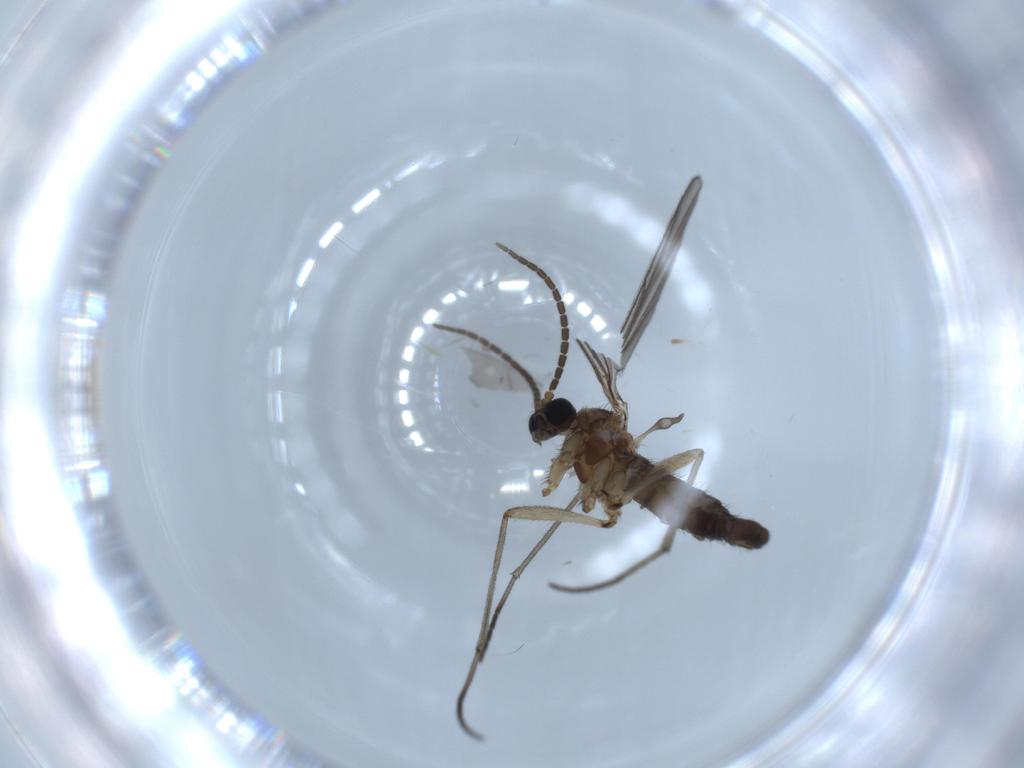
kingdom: Animalia
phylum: Arthropoda
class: Insecta
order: Diptera
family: Sciaridae
